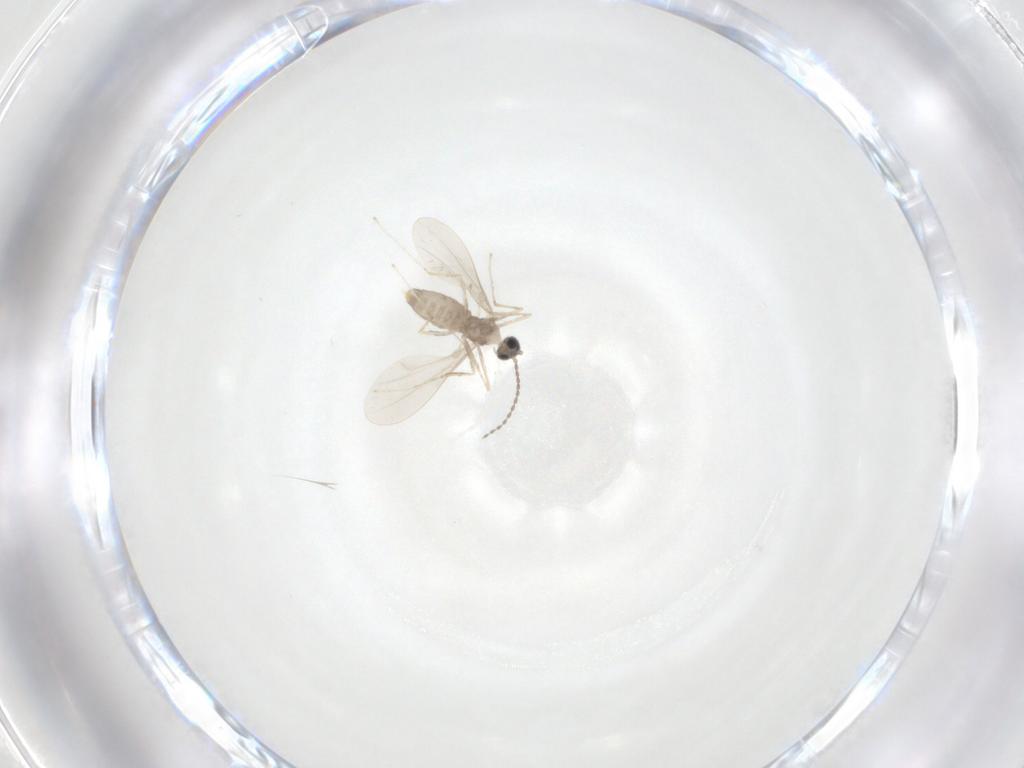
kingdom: Animalia
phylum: Arthropoda
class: Insecta
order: Diptera
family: Cecidomyiidae
